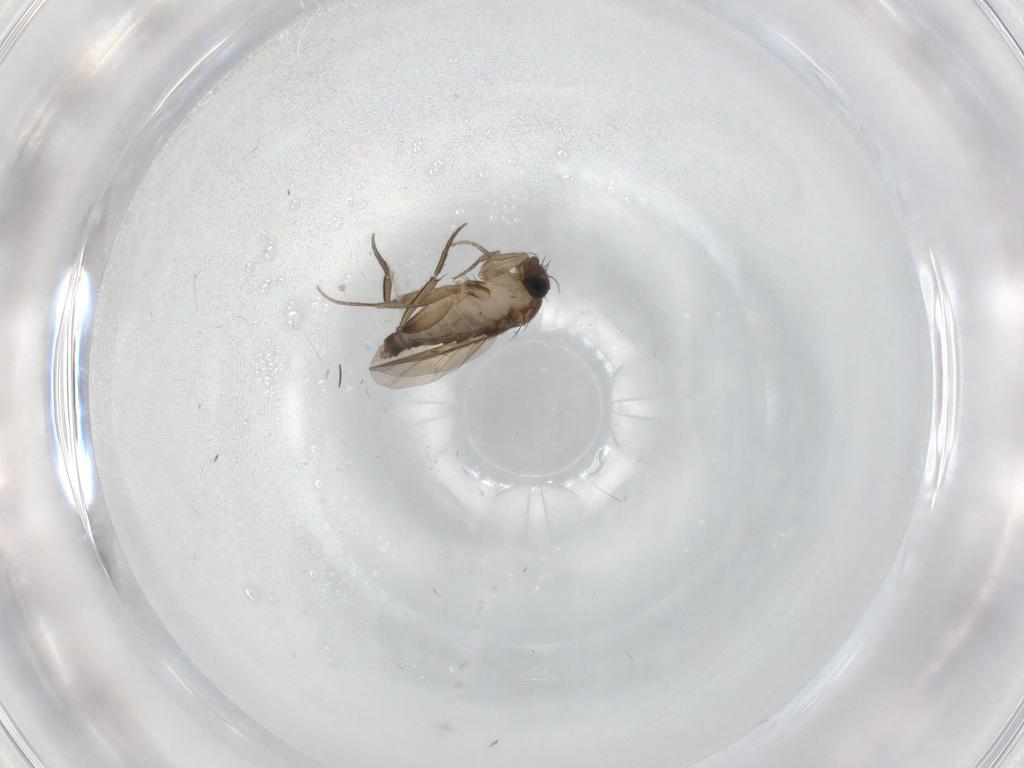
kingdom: Animalia
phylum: Arthropoda
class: Insecta
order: Diptera
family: Phoridae
